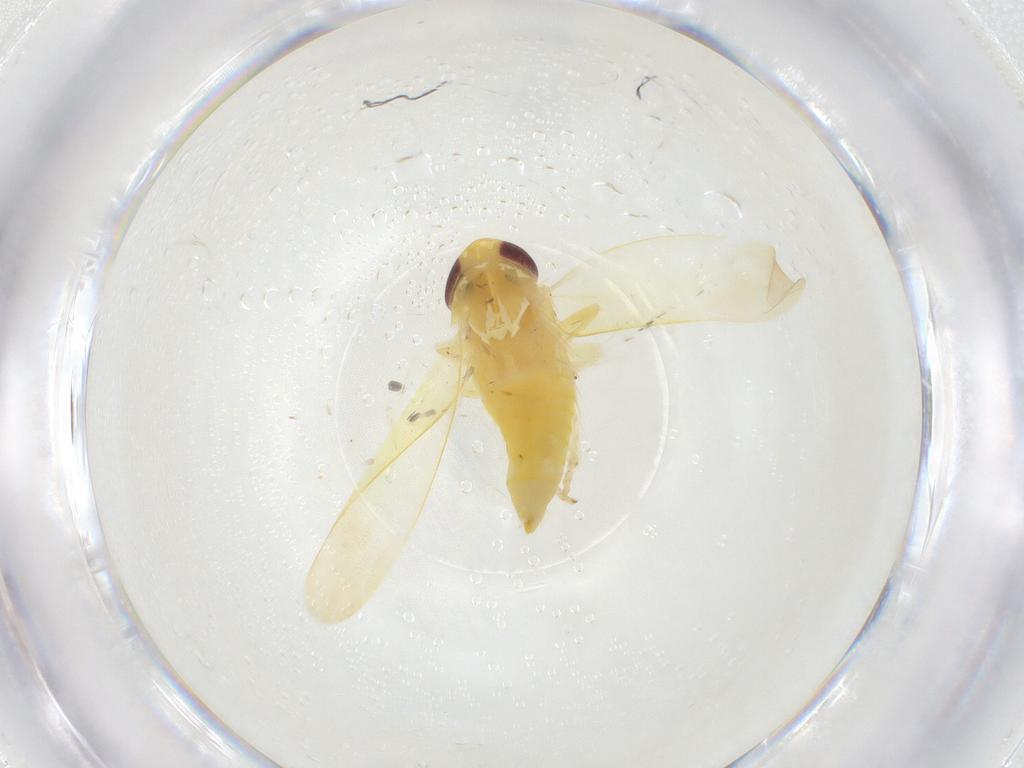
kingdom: Animalia
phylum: Arthropoda
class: Insecta
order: Hemiptera
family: Cicadellidae
